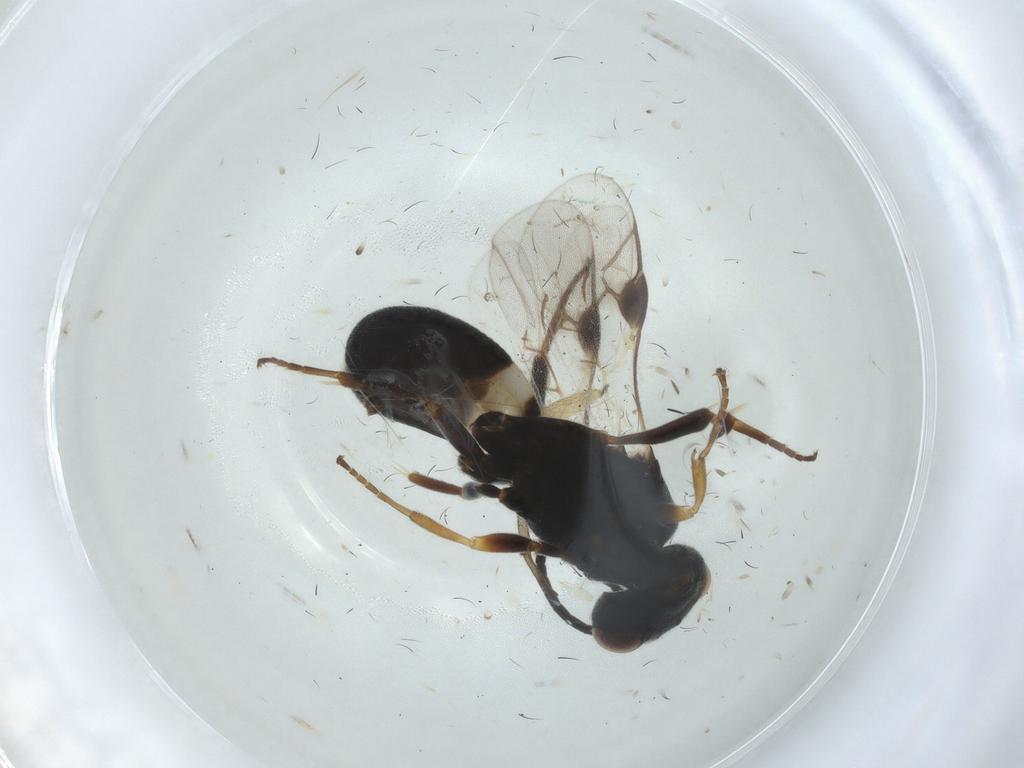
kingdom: Animalia
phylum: Arthropoda
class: Insecta
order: Hymenoptera
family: Braconidae
